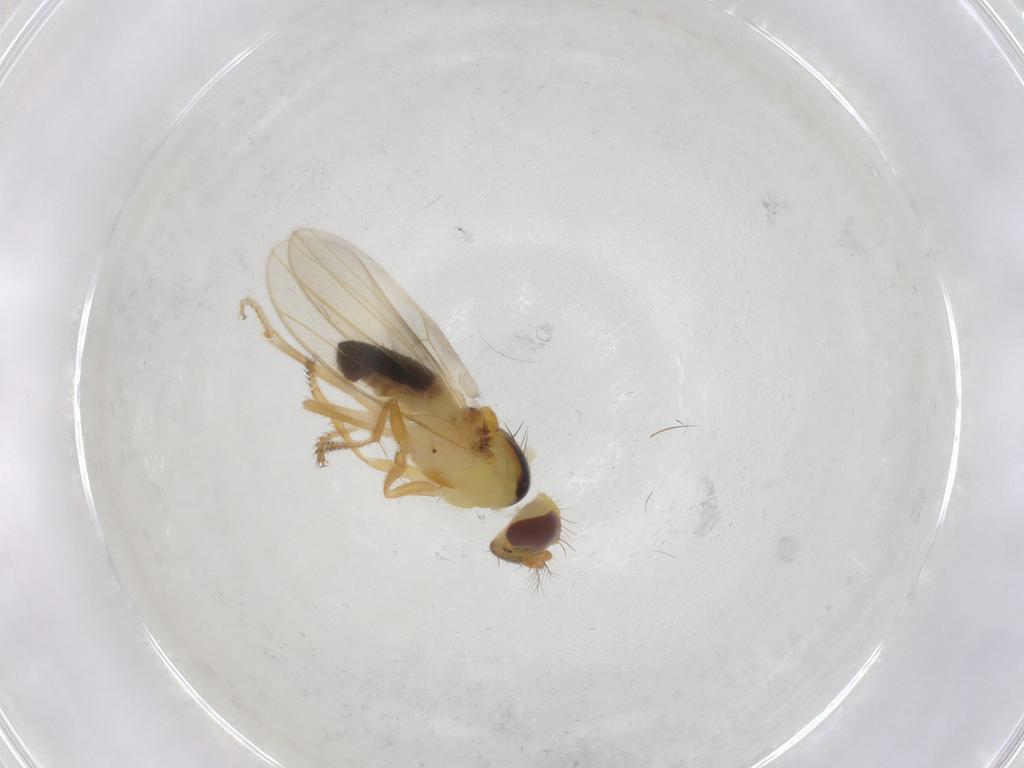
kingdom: Animalia
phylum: Arthropoda
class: Insecta
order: Diptera
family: Periscelididae
